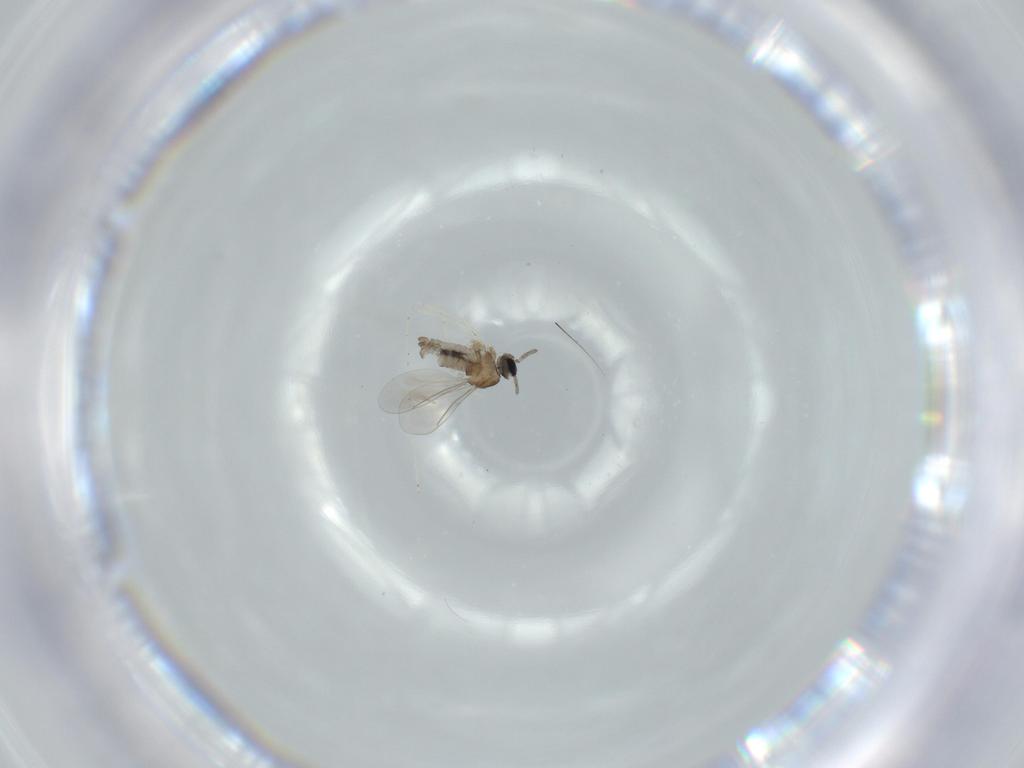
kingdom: Animalia
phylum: Arthropoda
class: Insecta
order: Diptera
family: Cecidomyiidae
